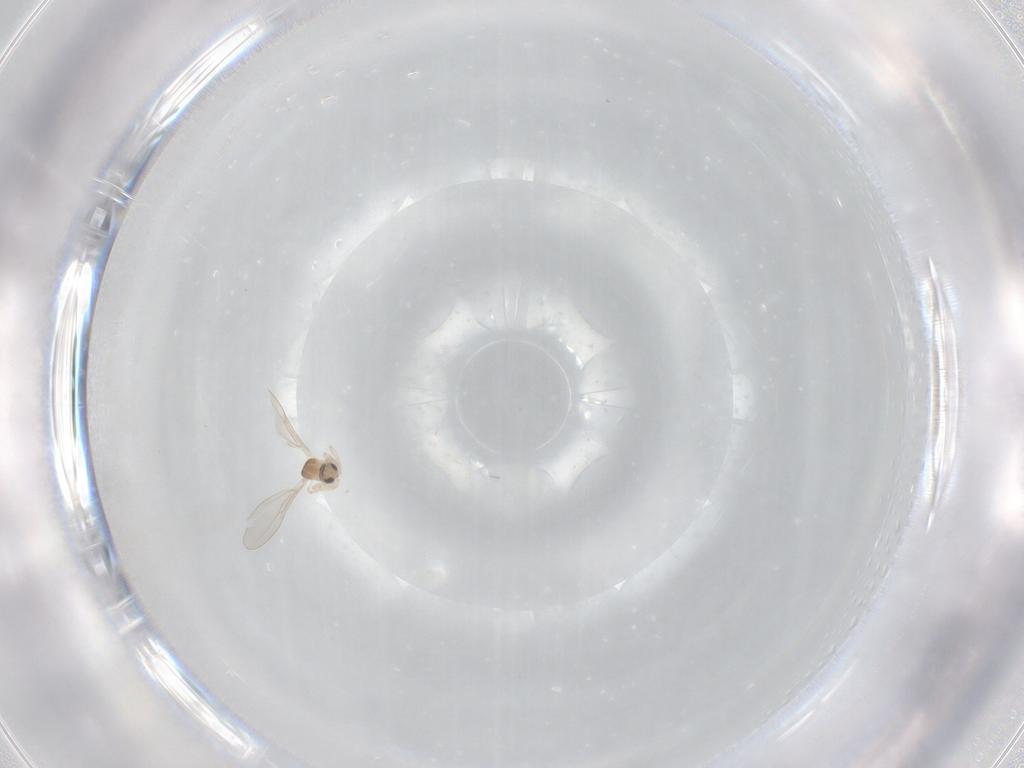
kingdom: Animalia
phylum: Arthropoda
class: Insecta
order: Diptera
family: Cecidomyiidae
